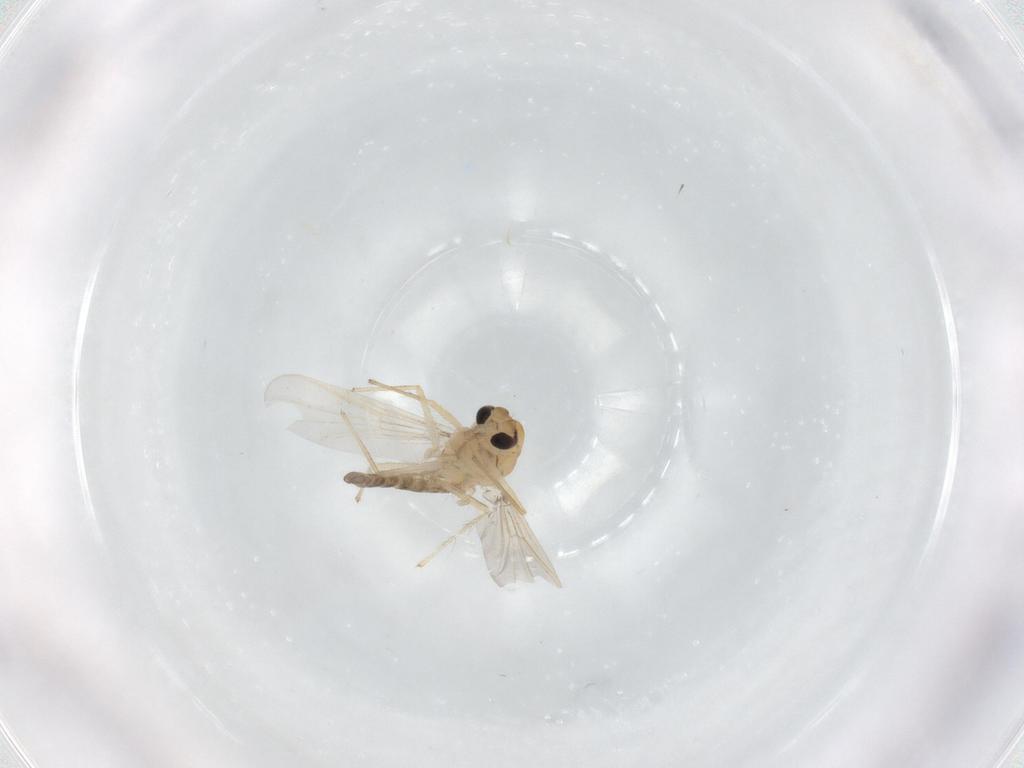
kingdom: Animalia
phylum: Arthropoda
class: Insecta
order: Diptera
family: Chironomidae
